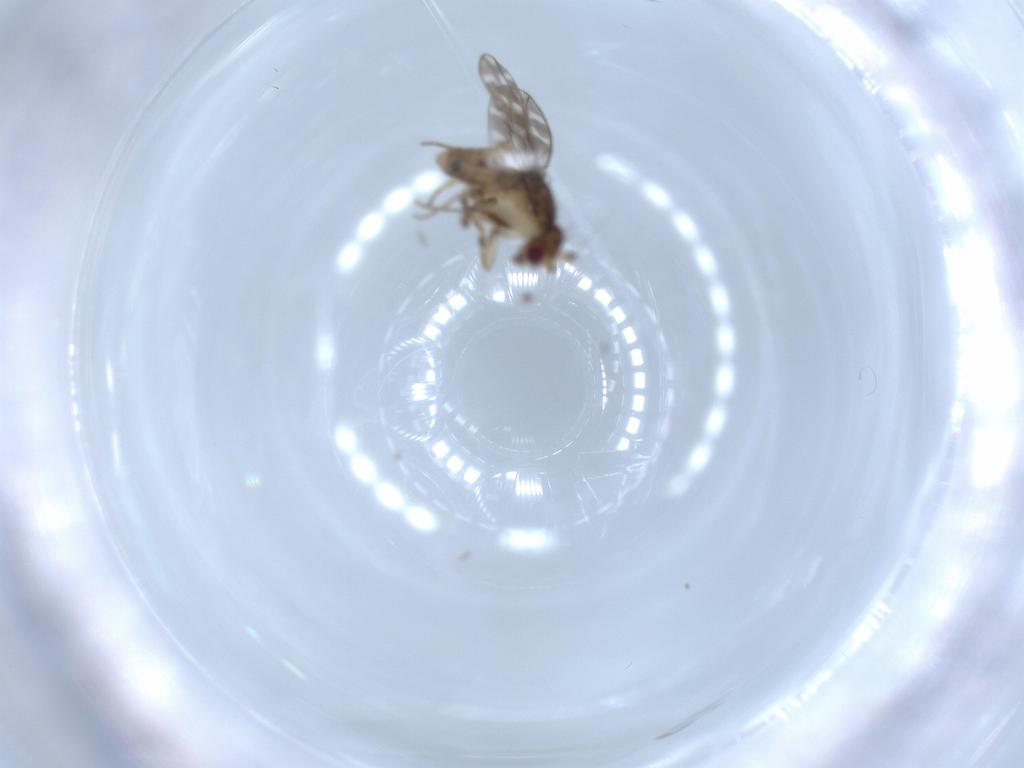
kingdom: Animalia
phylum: Arthropoda
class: Insecta
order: Diptera
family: Sphaeroceridae
